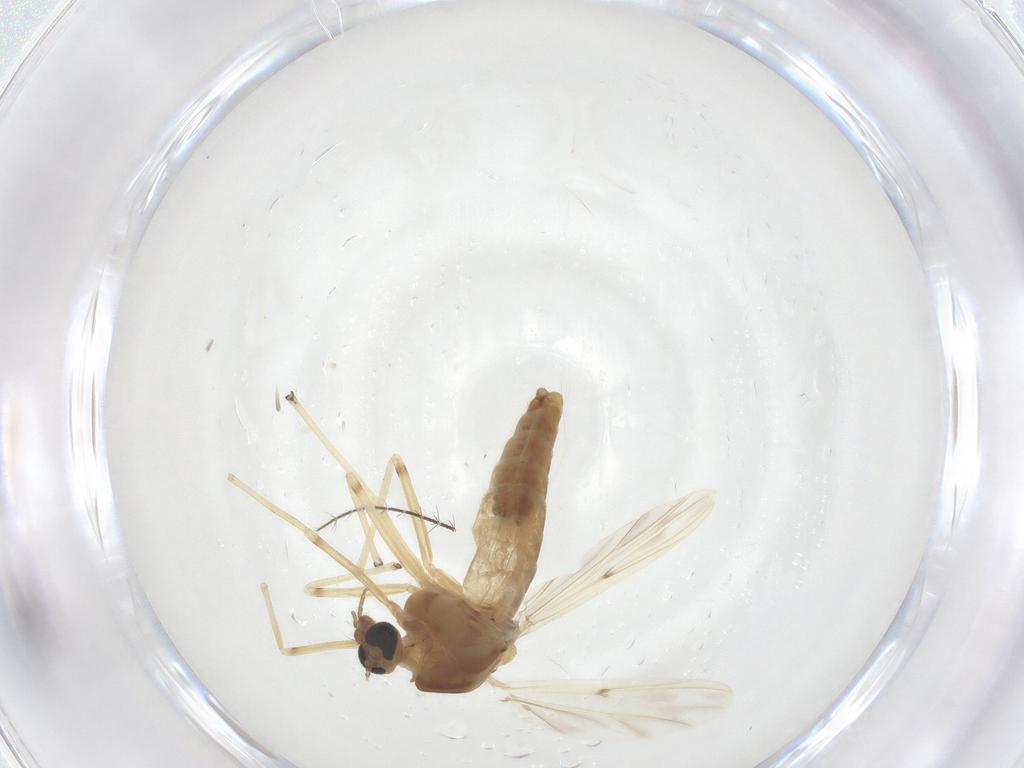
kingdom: Animalia
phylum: Arthropoda
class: Insecta
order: Diptera
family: Chironomidae
